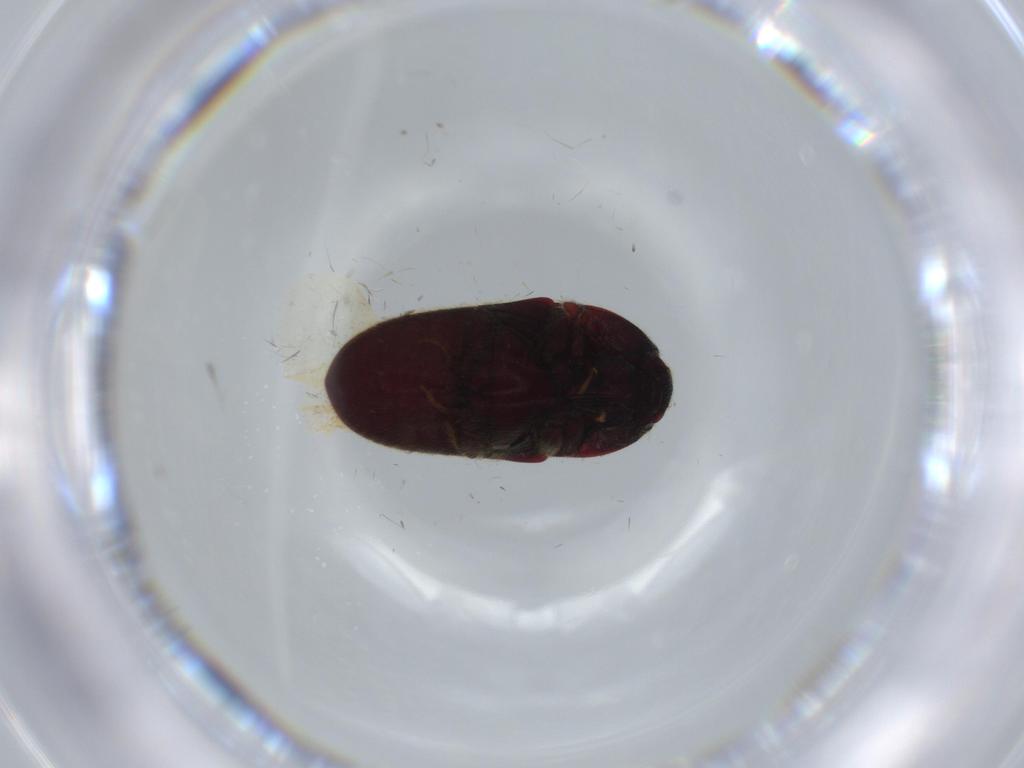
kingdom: Animalia
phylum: Arthropoda
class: Insecta
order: Coleoptera
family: Throscidae
